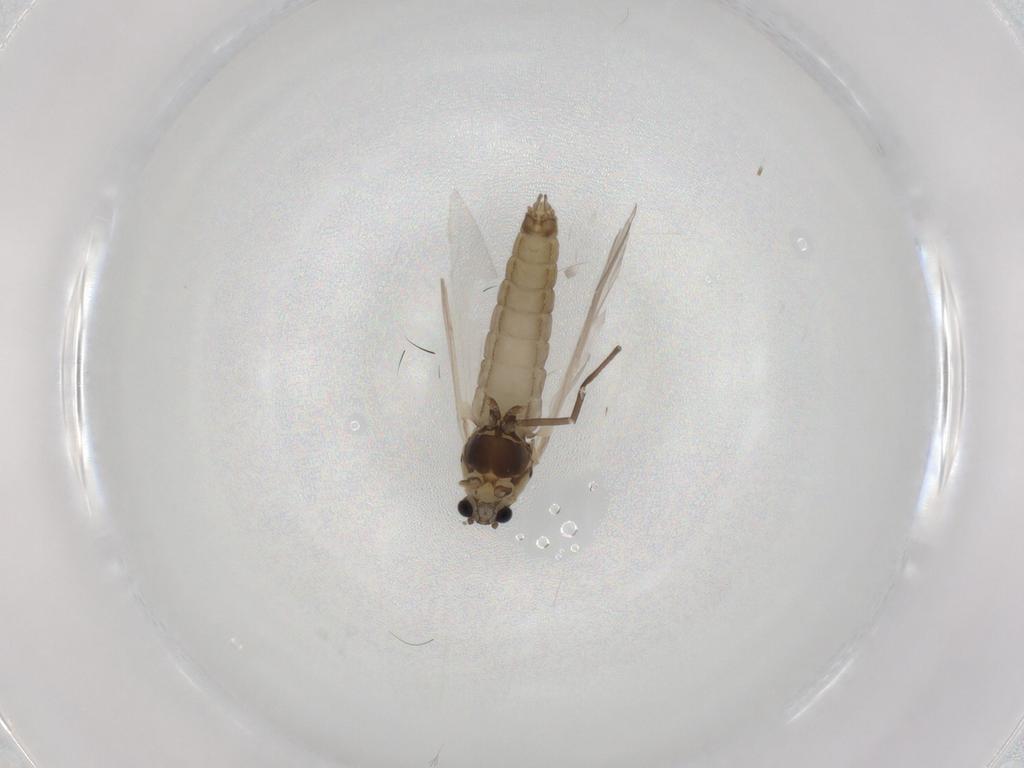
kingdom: Animalia
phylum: Arthropoda
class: Insecta
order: Diptera
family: Chironomidae
